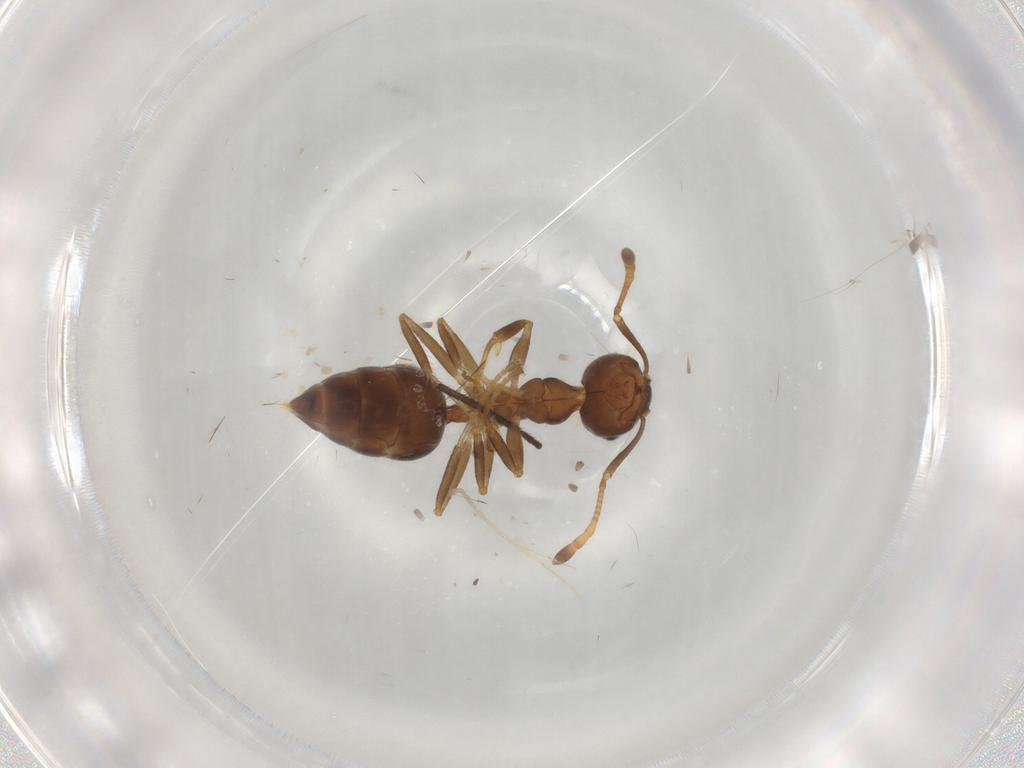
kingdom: Animalia
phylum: Arthropoda
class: Insecta
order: Hymenoptera
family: Braconidae
